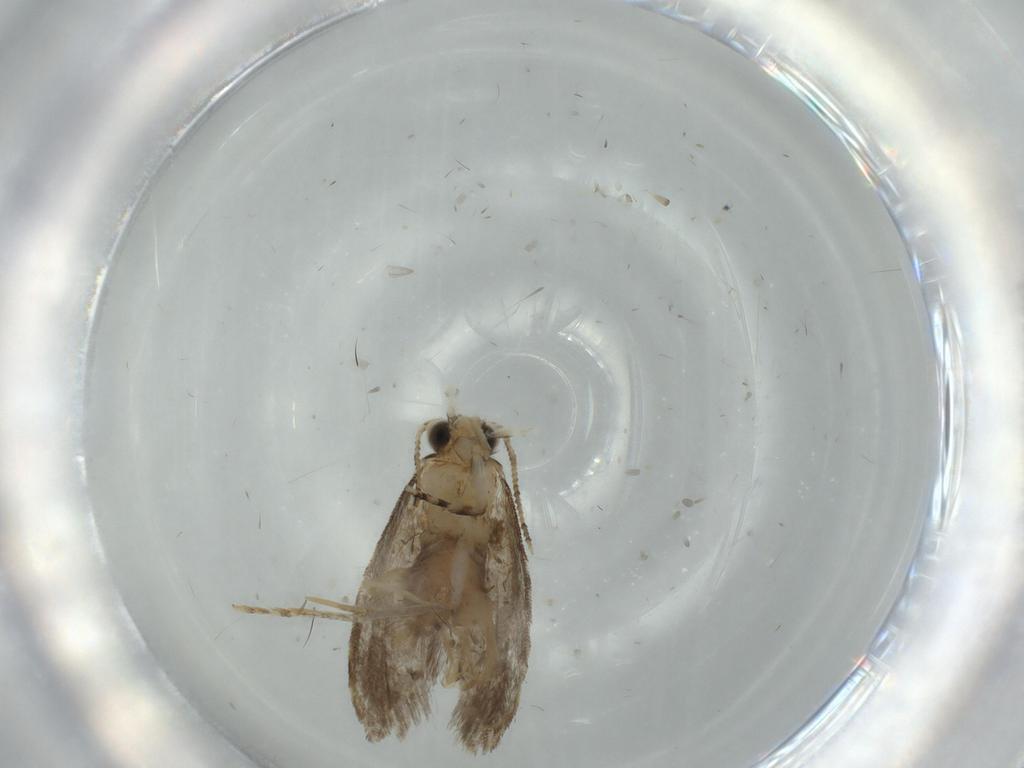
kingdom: Animalia
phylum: Arthropoda
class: Insecta
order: Lepidoptera
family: Tineidae
